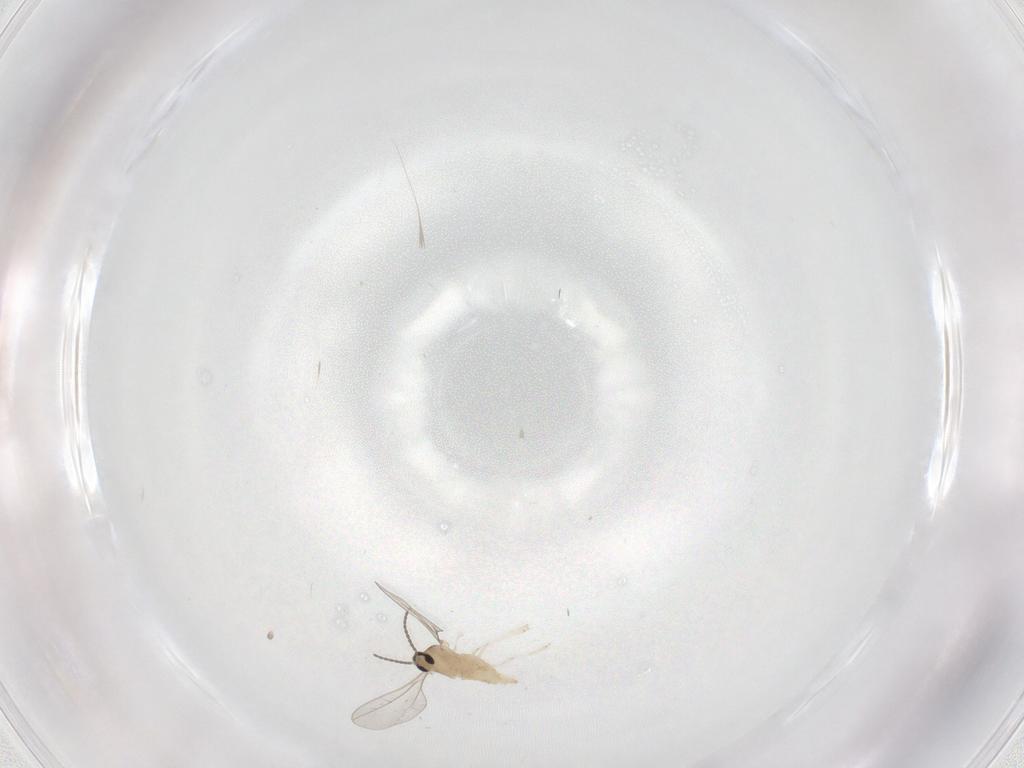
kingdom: Animalia
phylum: Arthropoda
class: Insecta
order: Diptera
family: Cecidomyiidae
